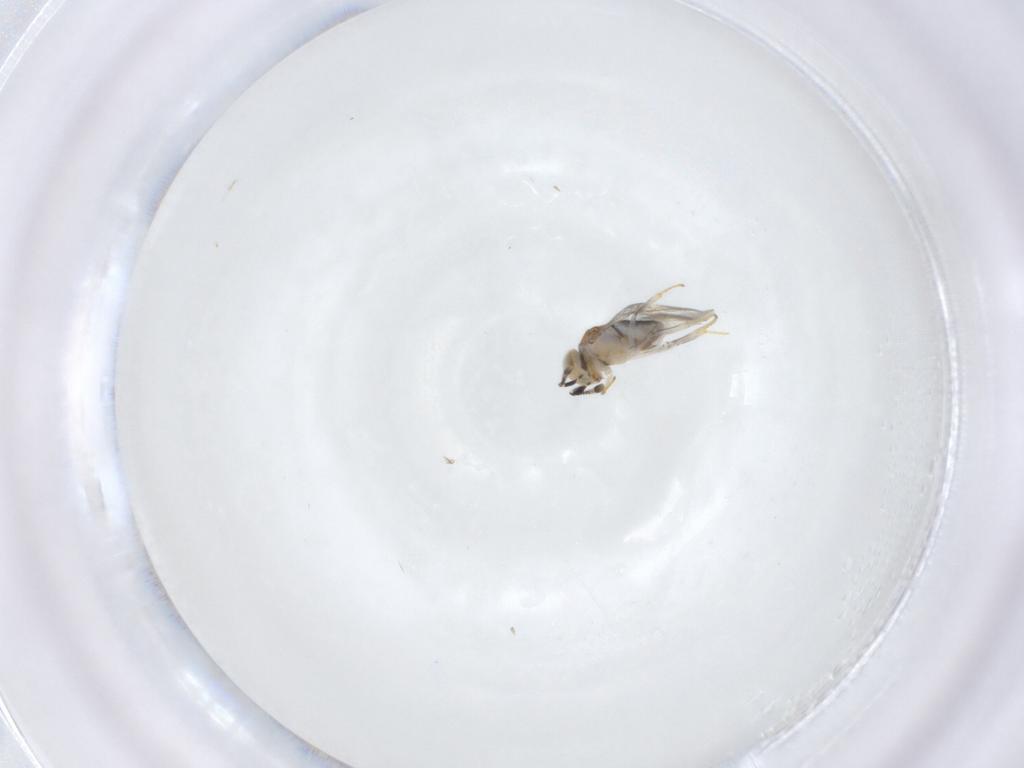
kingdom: Animalia
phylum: Arthropoda
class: Insecta
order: Hymenoptera
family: Encyrtidae
